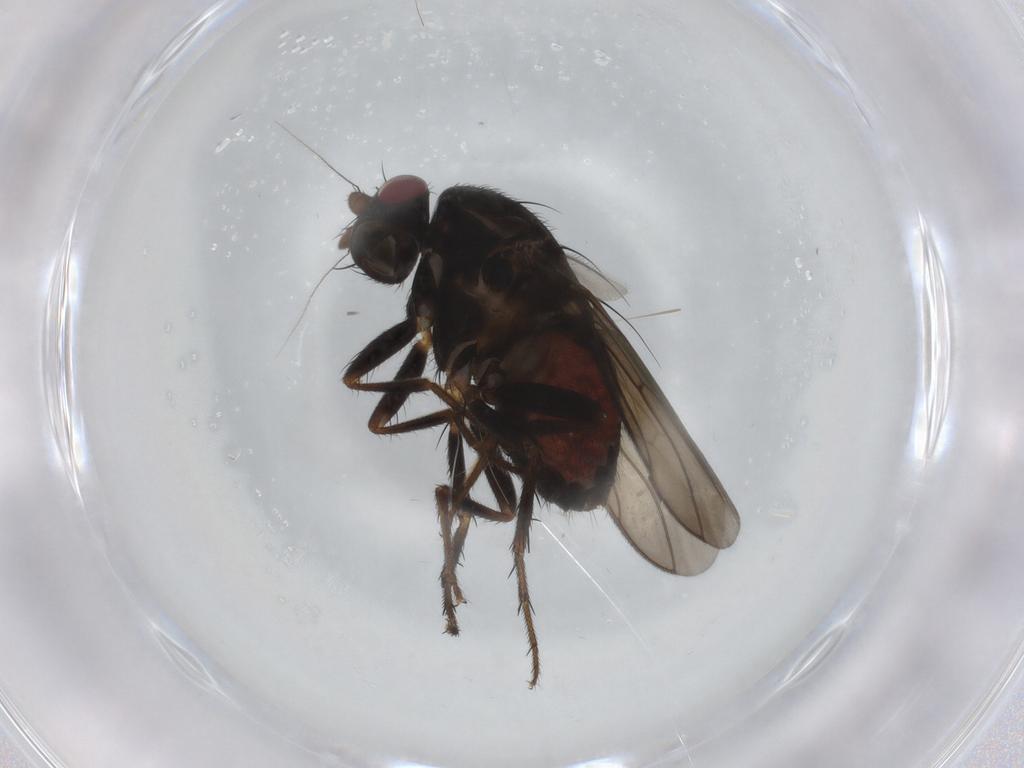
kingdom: Animalia
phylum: Arthropoda
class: Insecta
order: Diptera
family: Sphaeroceridae
